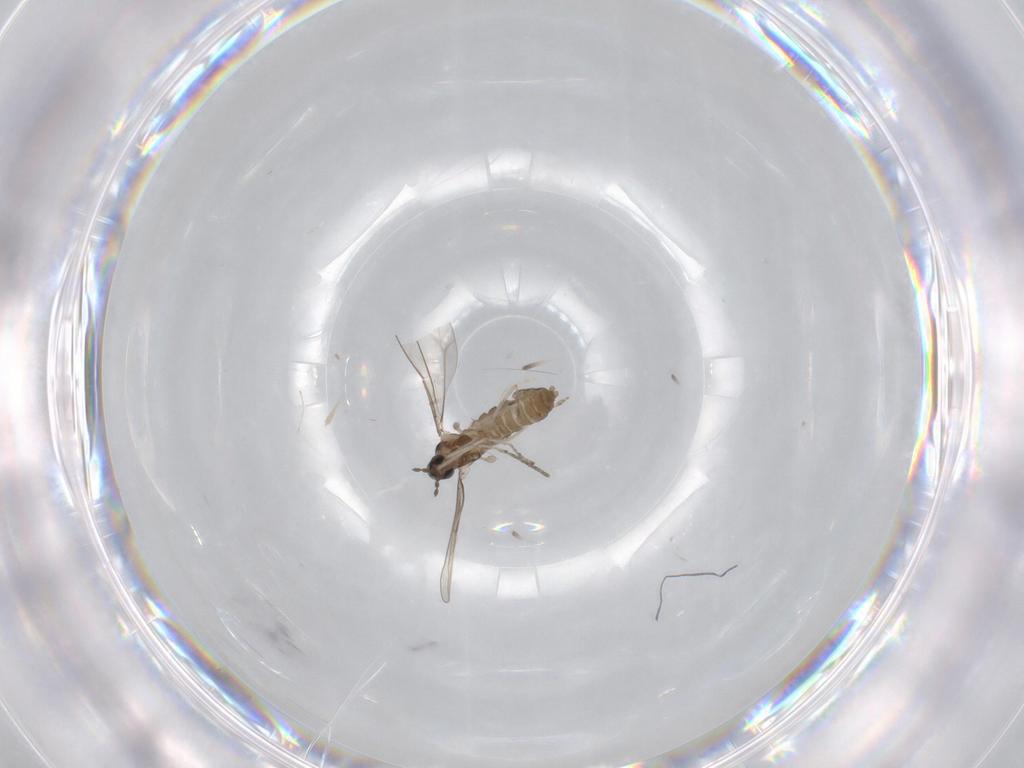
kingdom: Animalia
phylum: Arthropoda
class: Insecta
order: Diptera
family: Cecidomyiidae
